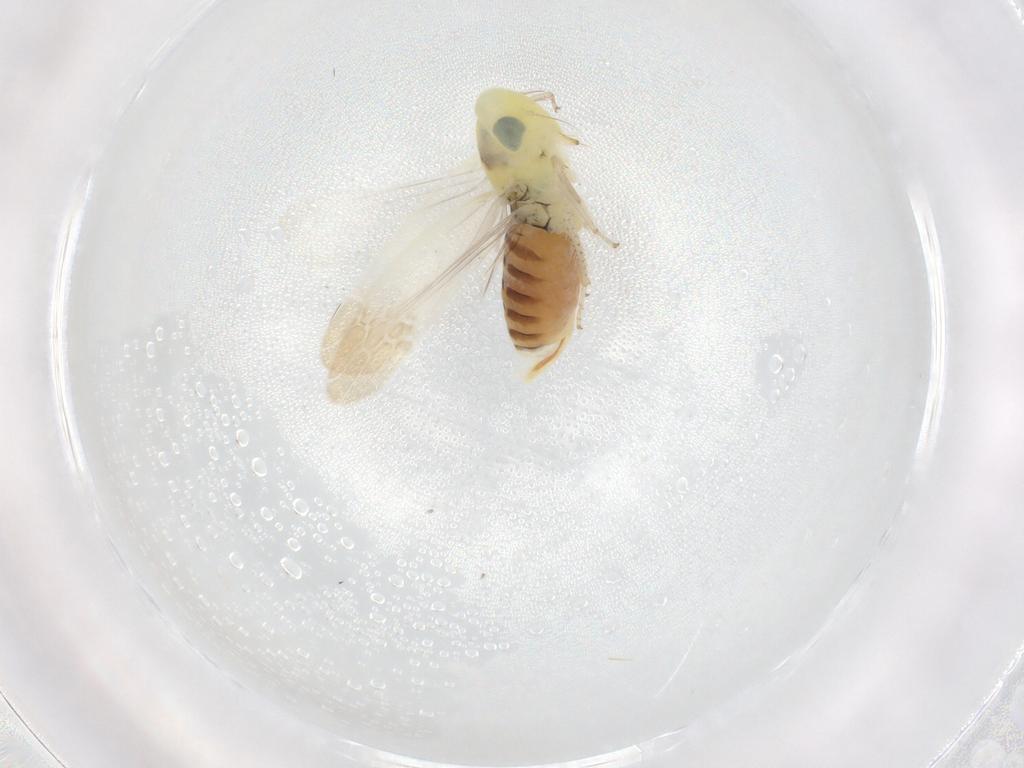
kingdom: Animalia
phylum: Arthropoda
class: Insecta
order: Hemiptera
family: Cicadellidae
